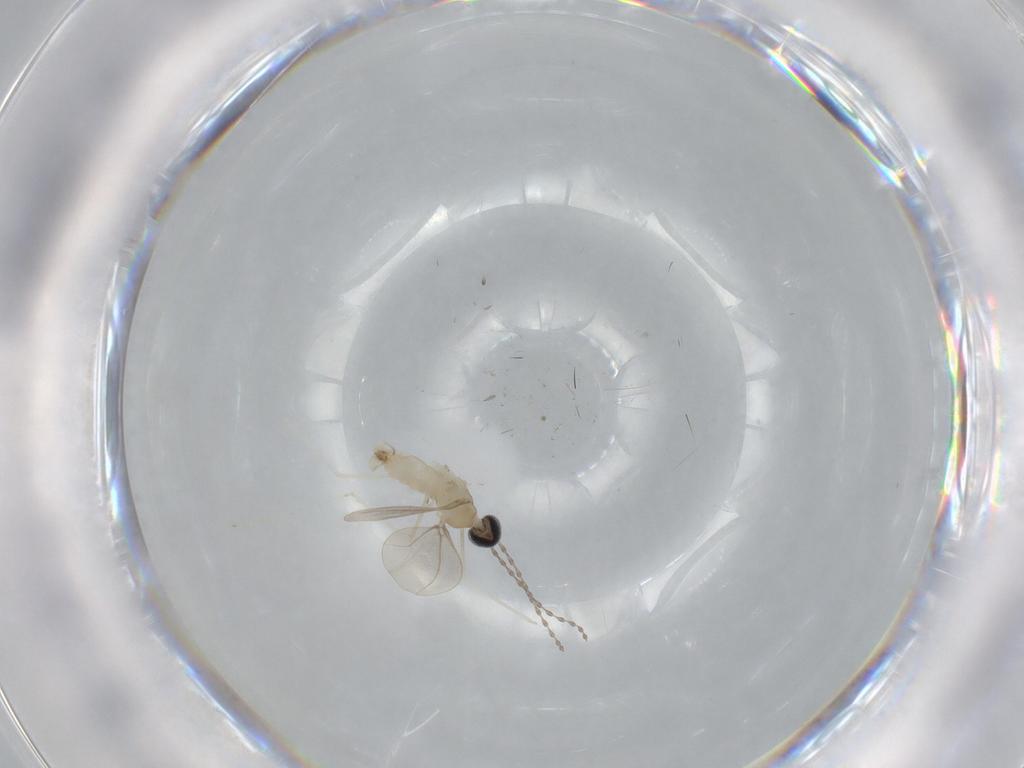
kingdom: Animalia
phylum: Arthropoda
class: Insecta
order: Diptera
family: Cecidomyiidae
